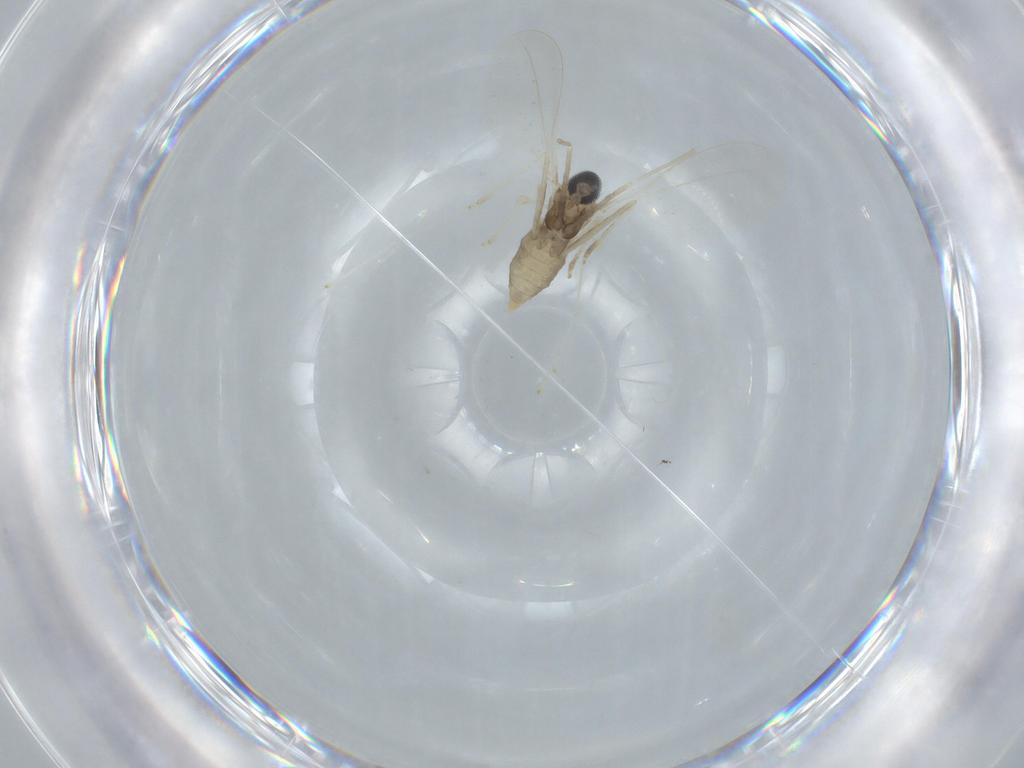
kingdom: Animalia
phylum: Arthropoda
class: Insecta
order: Diptera
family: Cecidomyiidae
